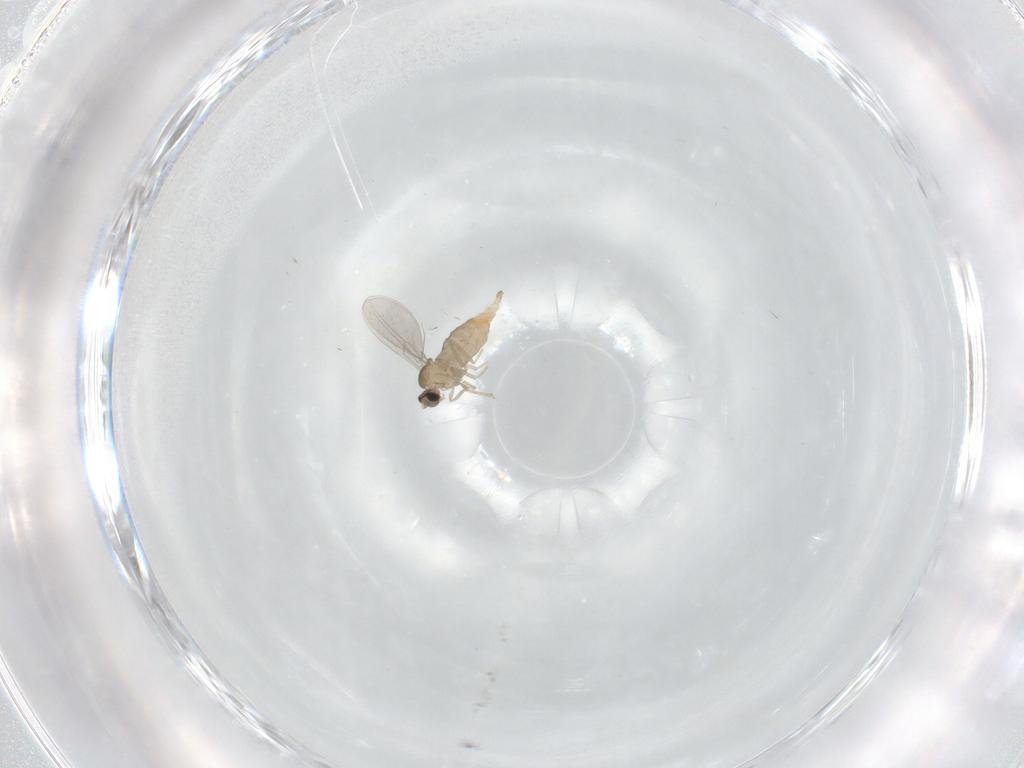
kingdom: Animalia
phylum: Arthropoda
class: Insecta
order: Diptera
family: Cecidomyiidae
